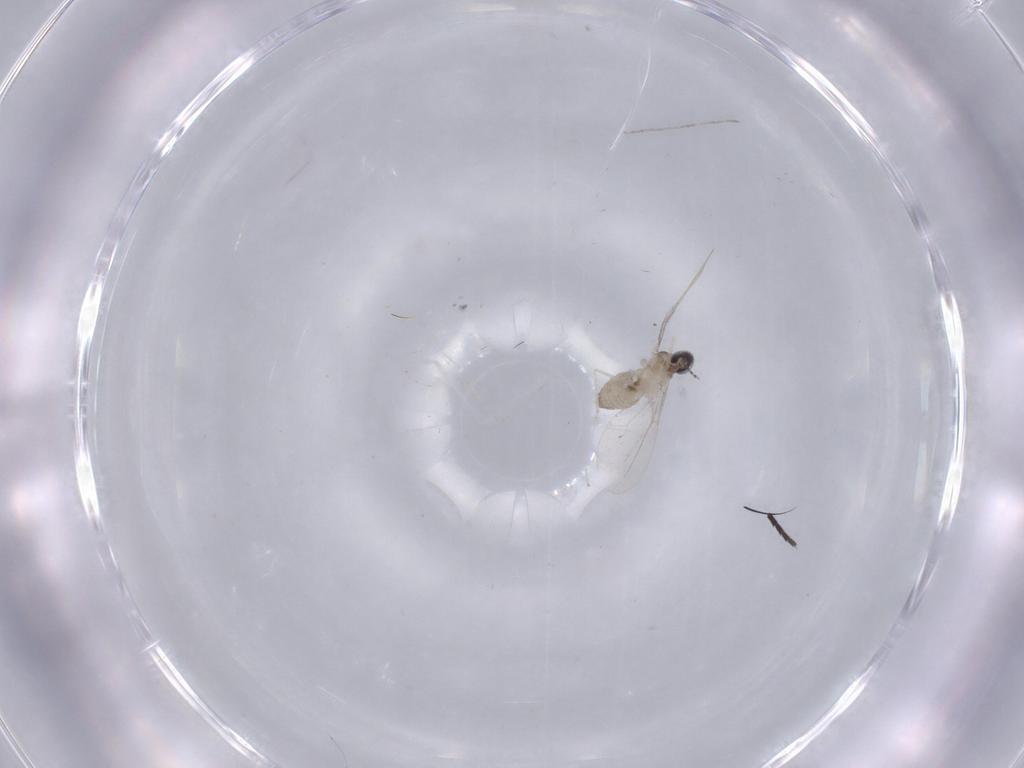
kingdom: Animalia
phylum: Arthropoda
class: Insecta
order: Diptera
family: Cecidomyiidae
